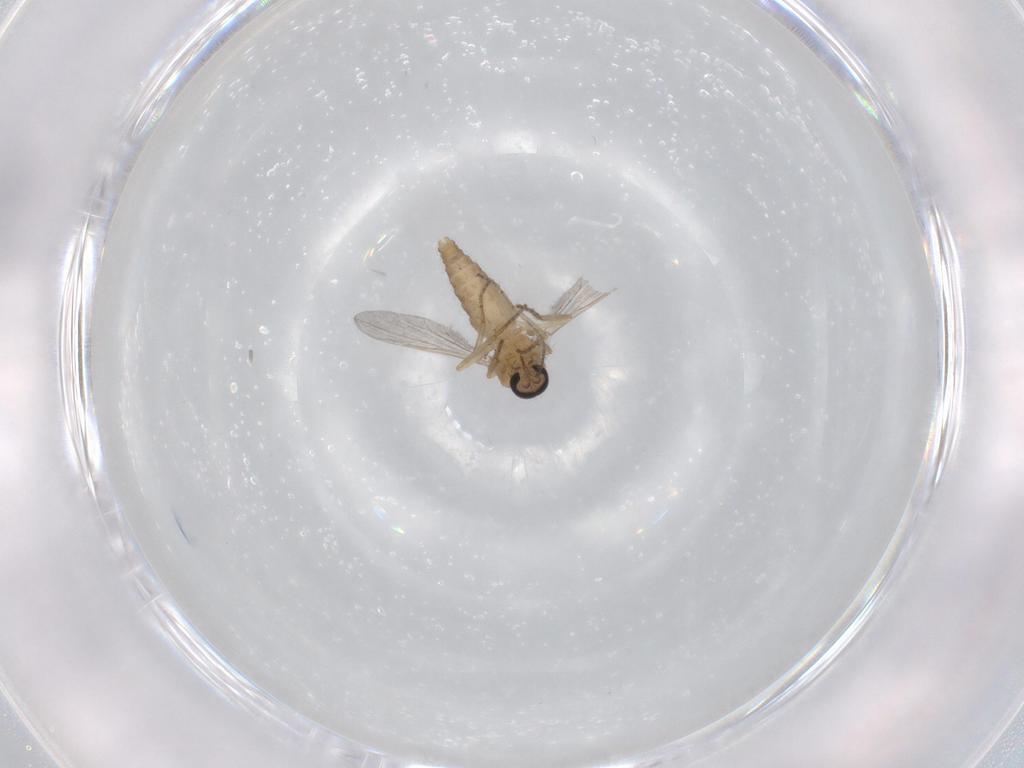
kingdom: Animalia
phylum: Arthropoda
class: Insecta
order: Diptera
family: Ceratopogonidae
